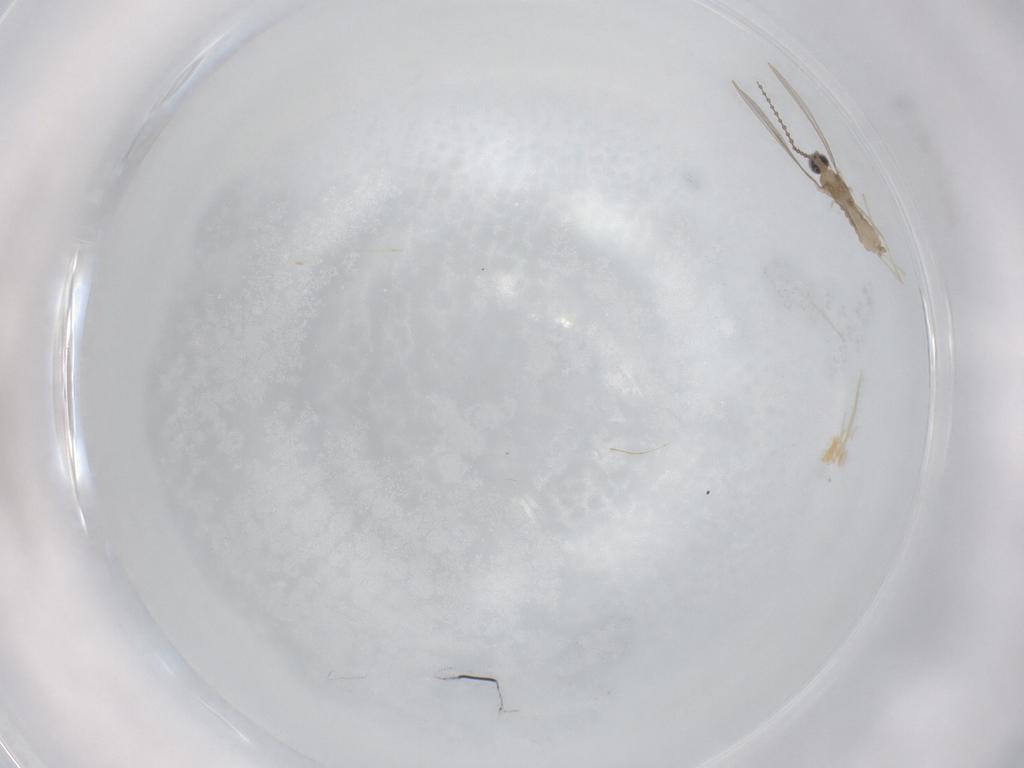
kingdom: Animalia
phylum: Arthropoda
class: Insecta
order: Diptera
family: Cecidomyiidae
